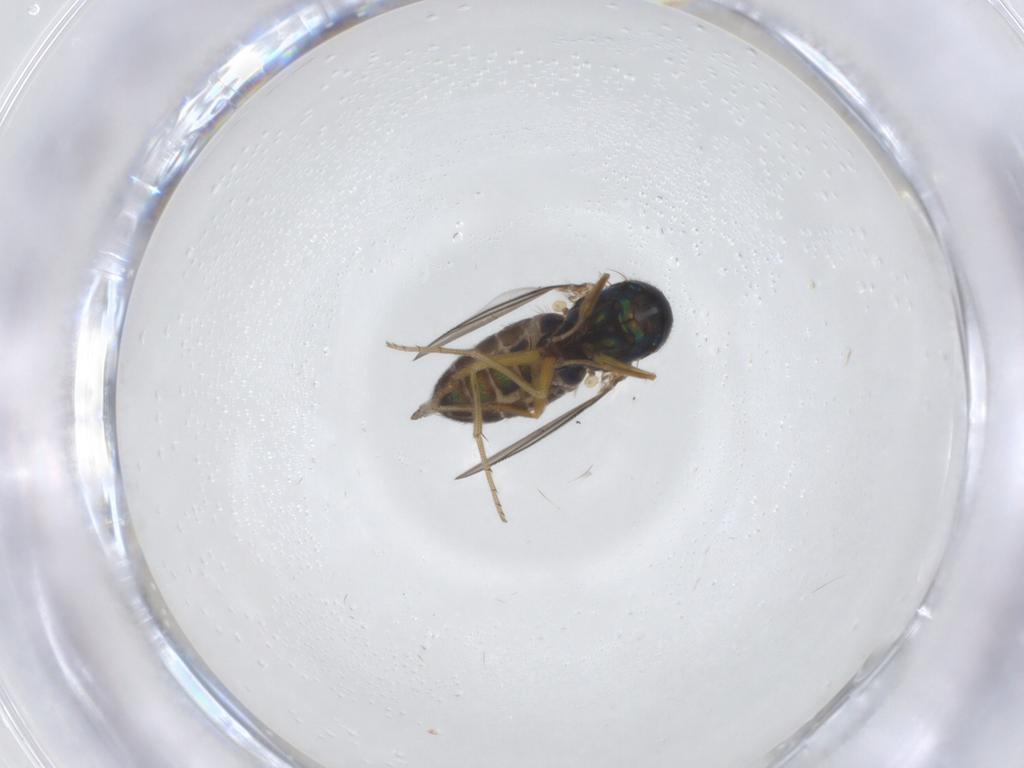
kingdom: Animalia
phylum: Arthropoda
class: Insecta
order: Diptera
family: Dolichopodidae
